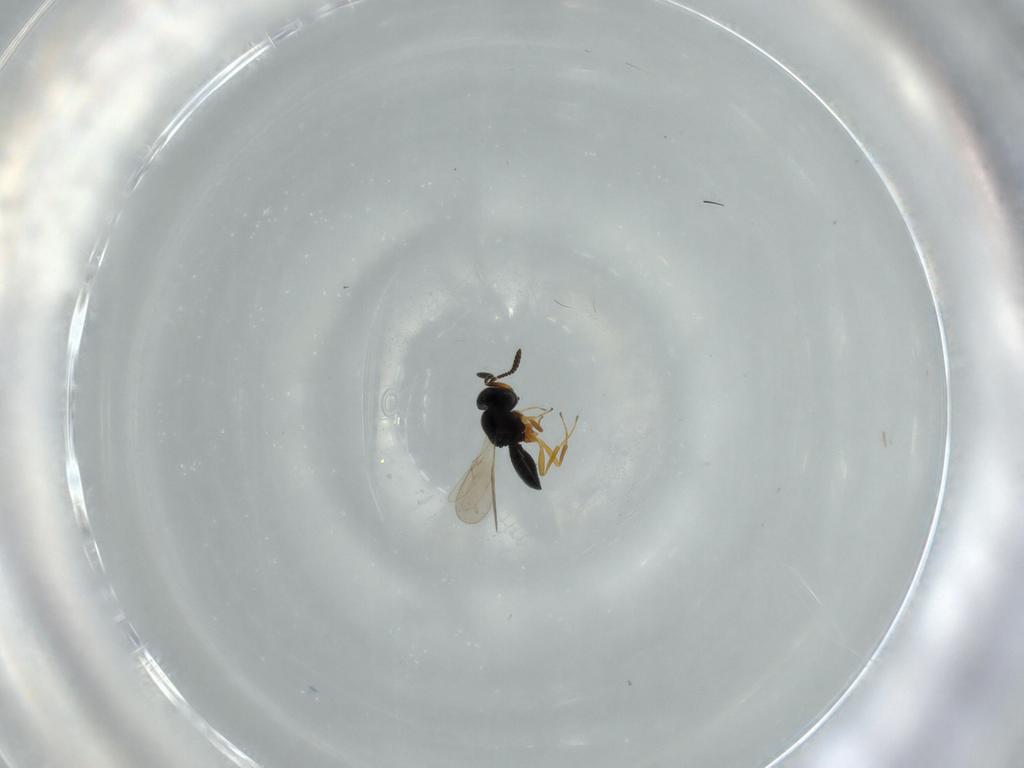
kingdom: Animalia
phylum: Arthropoda
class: Insecta
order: Hymenoptera
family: Scelionidae
